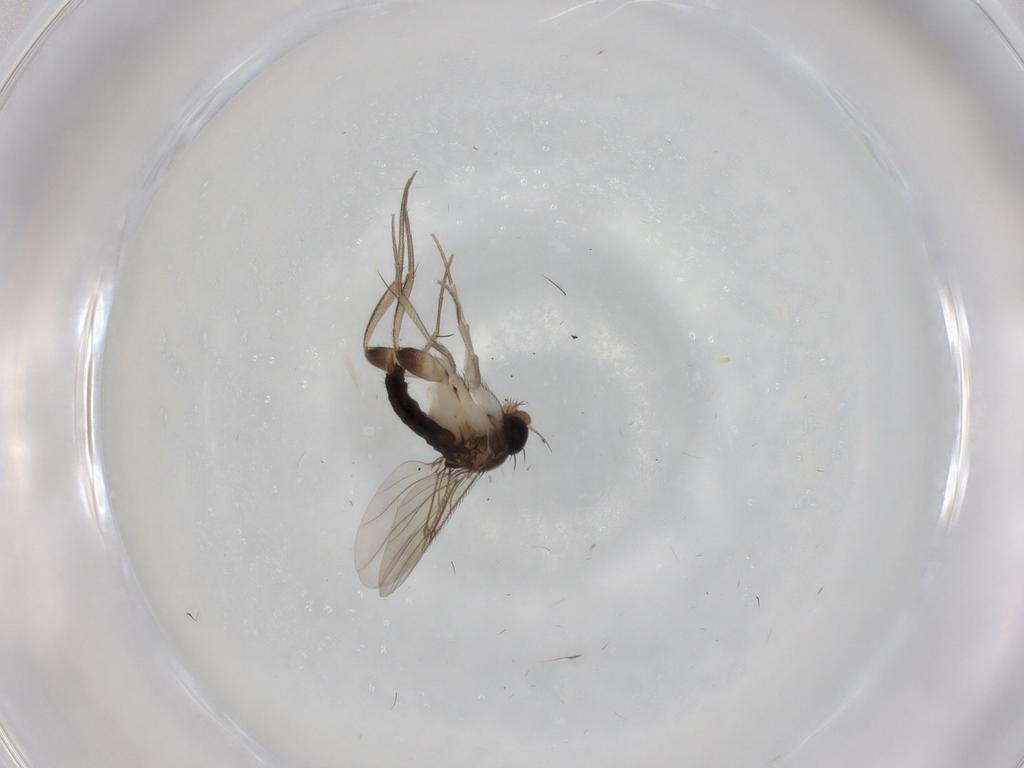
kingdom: Animalia
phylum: Arthropoda
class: Insecta
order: Diptera
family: Phoridae
